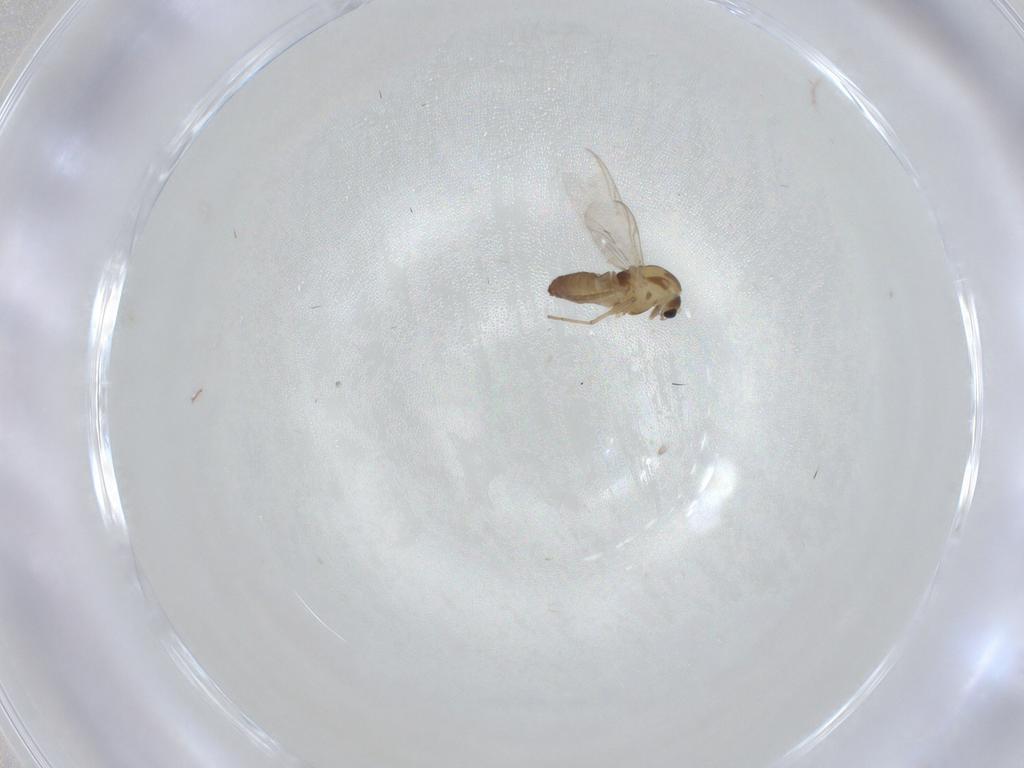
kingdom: Animalia
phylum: Arthropoda
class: Insecta
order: Diptera
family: Chironomidae
